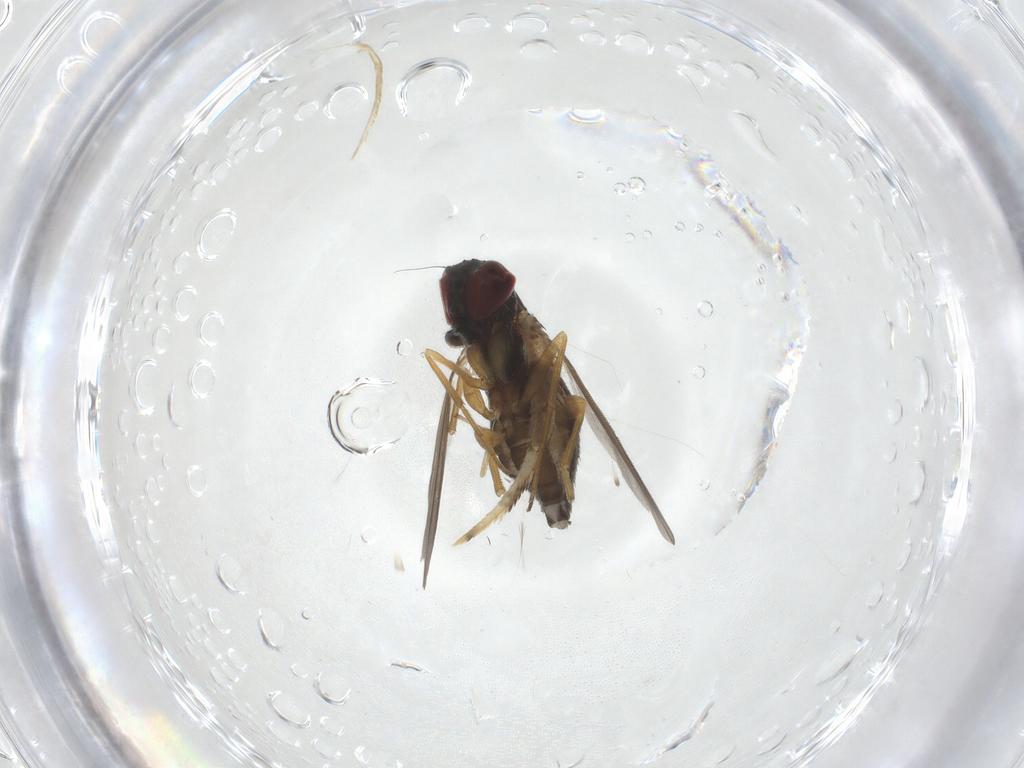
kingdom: Animalia
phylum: Arthropoda
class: Insecta
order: Diptera
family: Dolichopodidae
